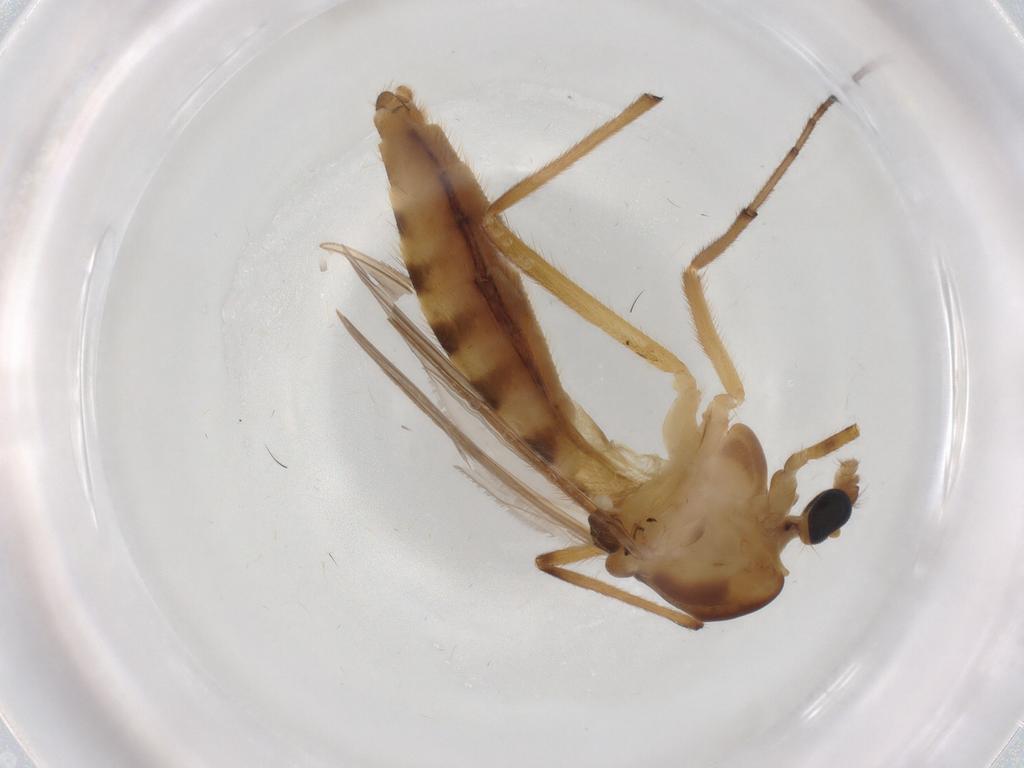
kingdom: Animalia
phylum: Arthropoda
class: Insecta
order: Diptera
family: Chironomidae
